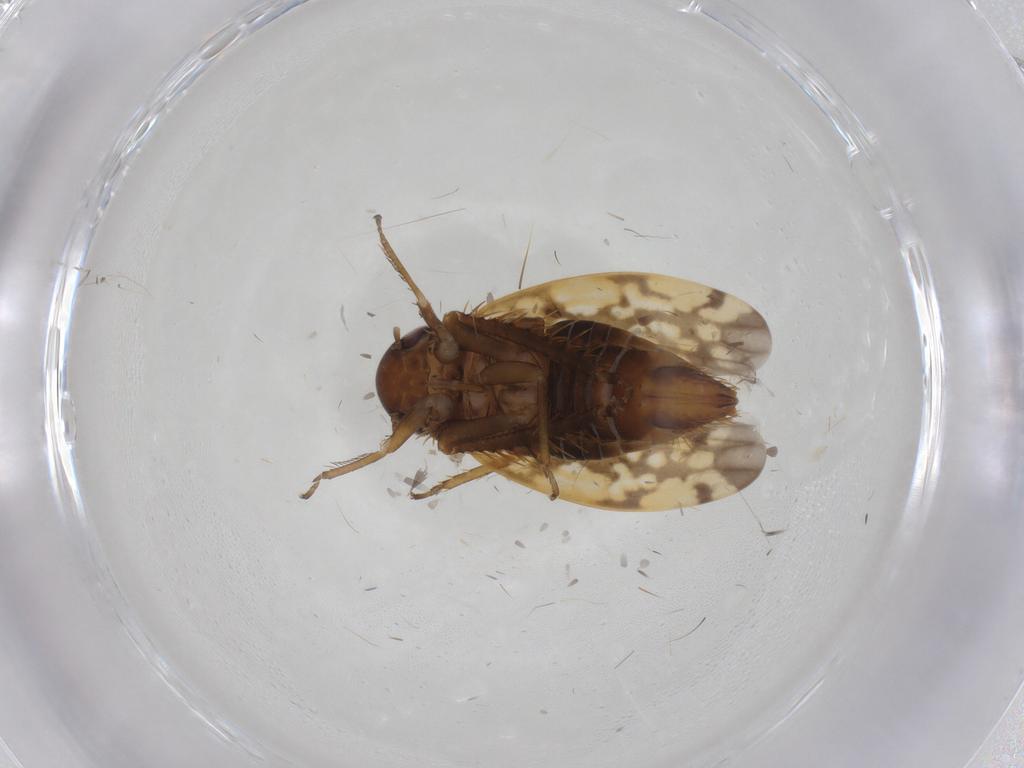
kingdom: Animalia
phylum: Arthropoda
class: Insecta
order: Hemiptera
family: Cicadellidae
